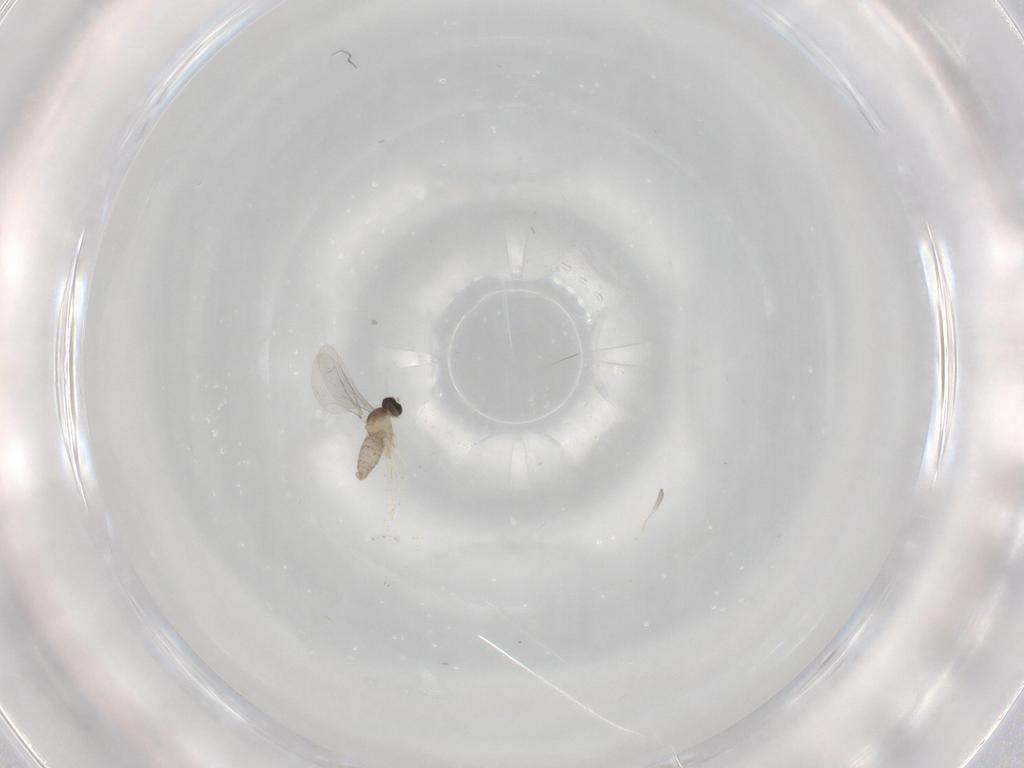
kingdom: Animalia
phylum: Arthropoda
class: Insecta
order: Diptera
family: Cecidomyiidae
